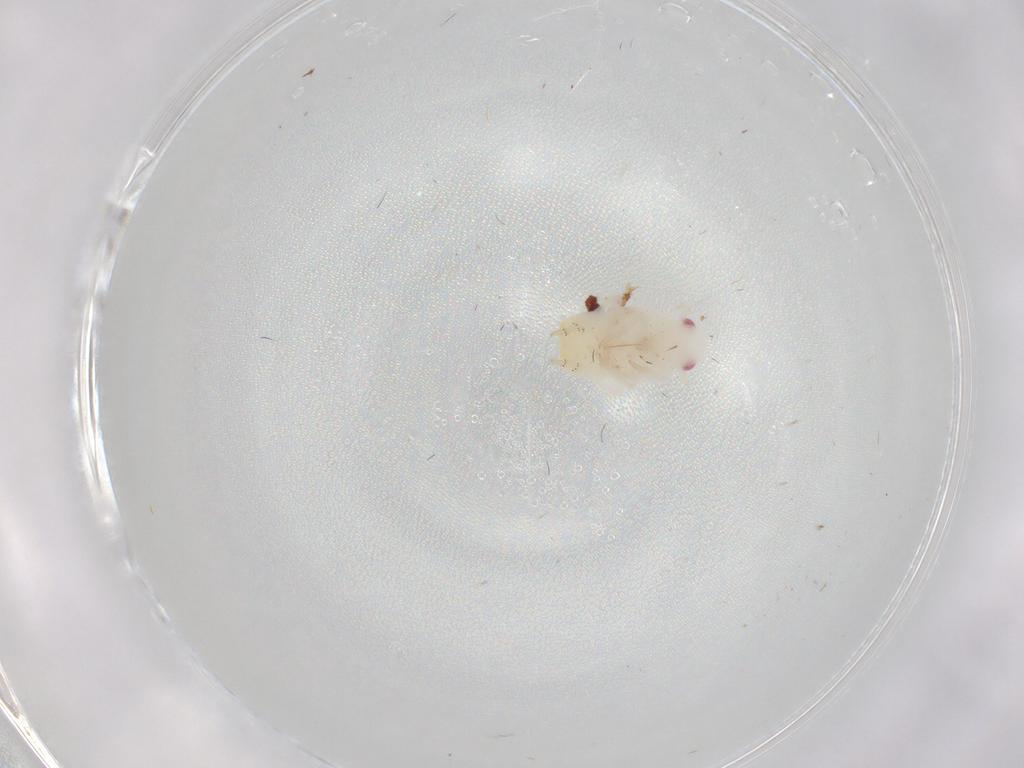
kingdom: Animalia
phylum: Arthropoda
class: Insecta
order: Hemiptera
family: Flatidae
